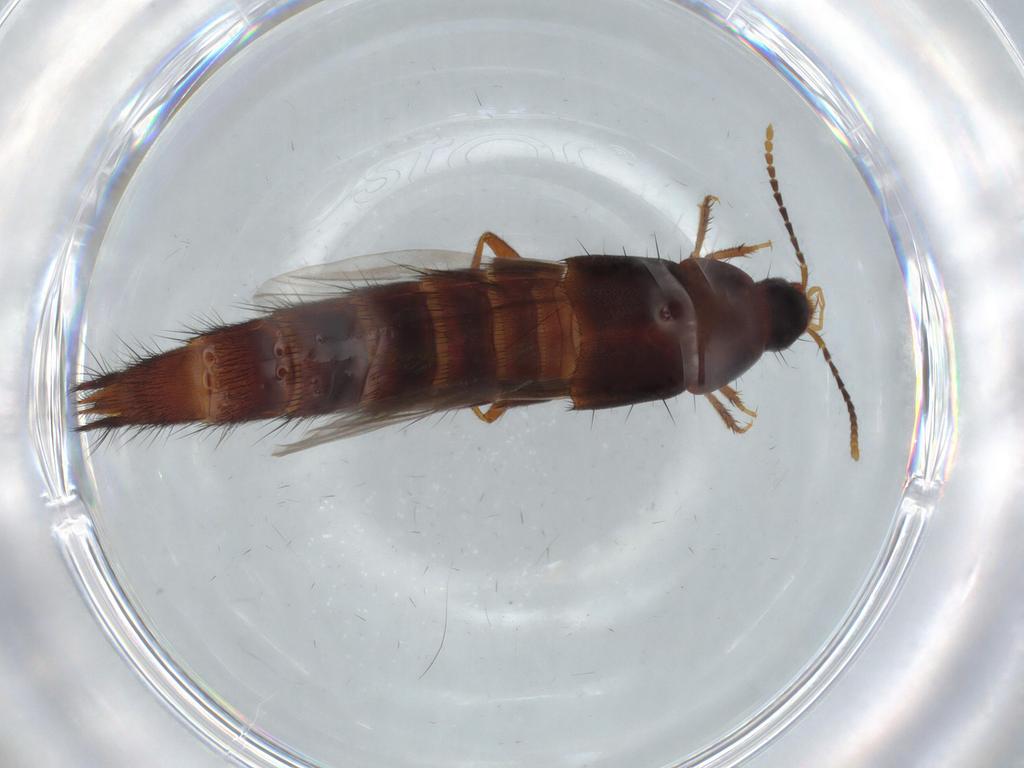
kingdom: Animalia
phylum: Arthropoda
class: Insecta
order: Coleoptera
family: Staphylinidae
